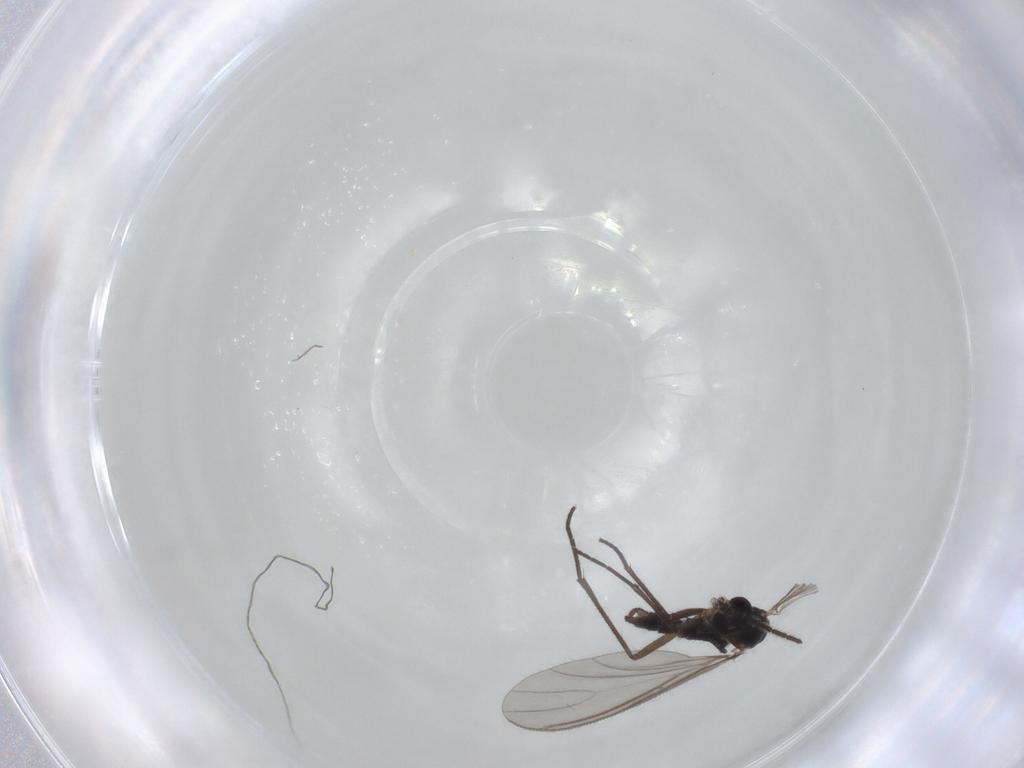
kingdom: Animalia
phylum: Arthropoda
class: Insecta
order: Diptera
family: Sciaridae
